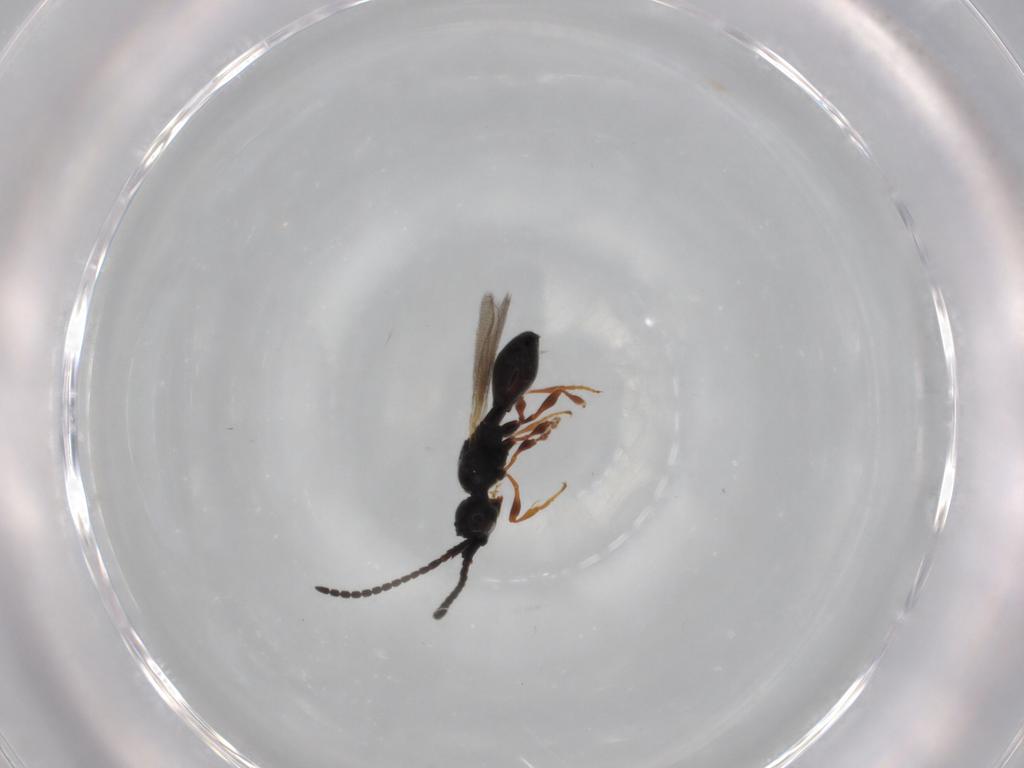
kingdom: Animalia
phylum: Arthropoda
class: Insecta
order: Hymenoptera
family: Diapriidae
